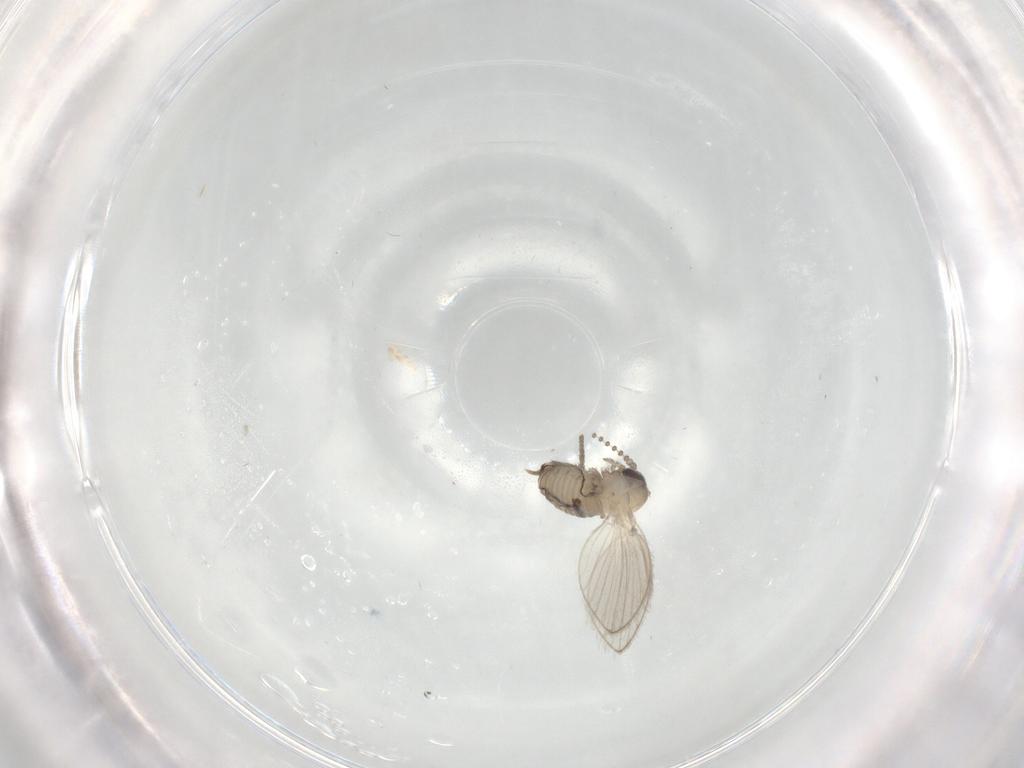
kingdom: Animalia
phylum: Arthropoda
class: Insecta
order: Diptera
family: Psychodidae
